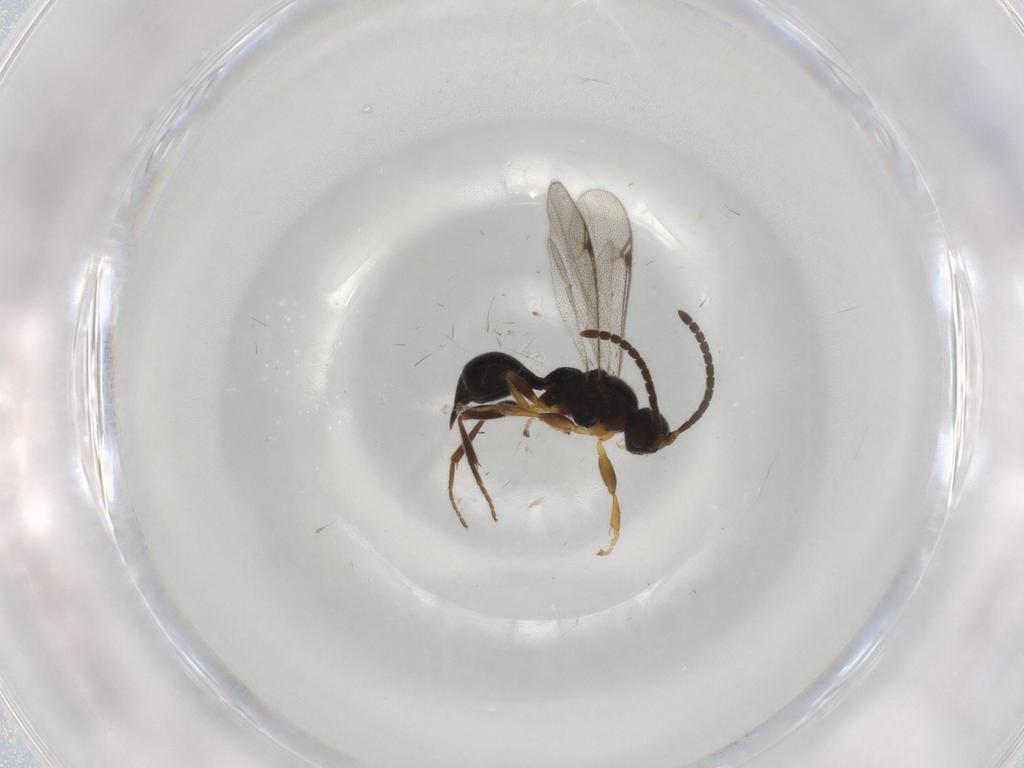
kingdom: Animalia
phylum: Arthropoda
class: Insecta
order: Hymenoptera
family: Proctotrupidae
